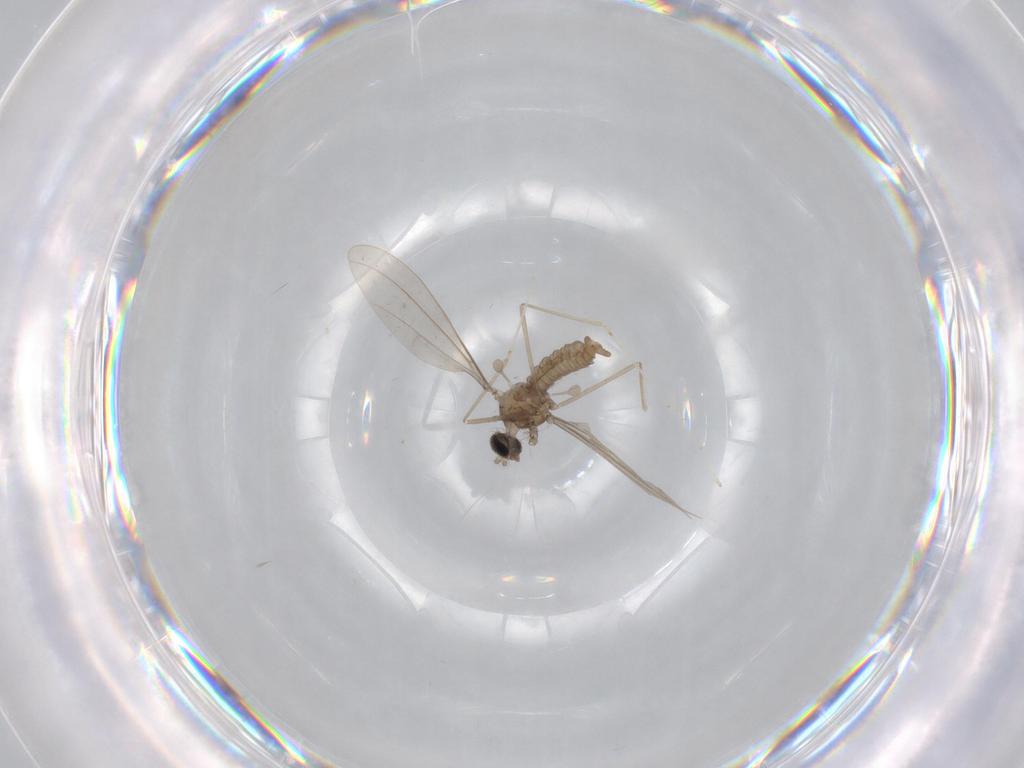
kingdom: Animalia
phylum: Arthropoda
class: Insecta
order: Diptera
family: Cecidomyiidae
